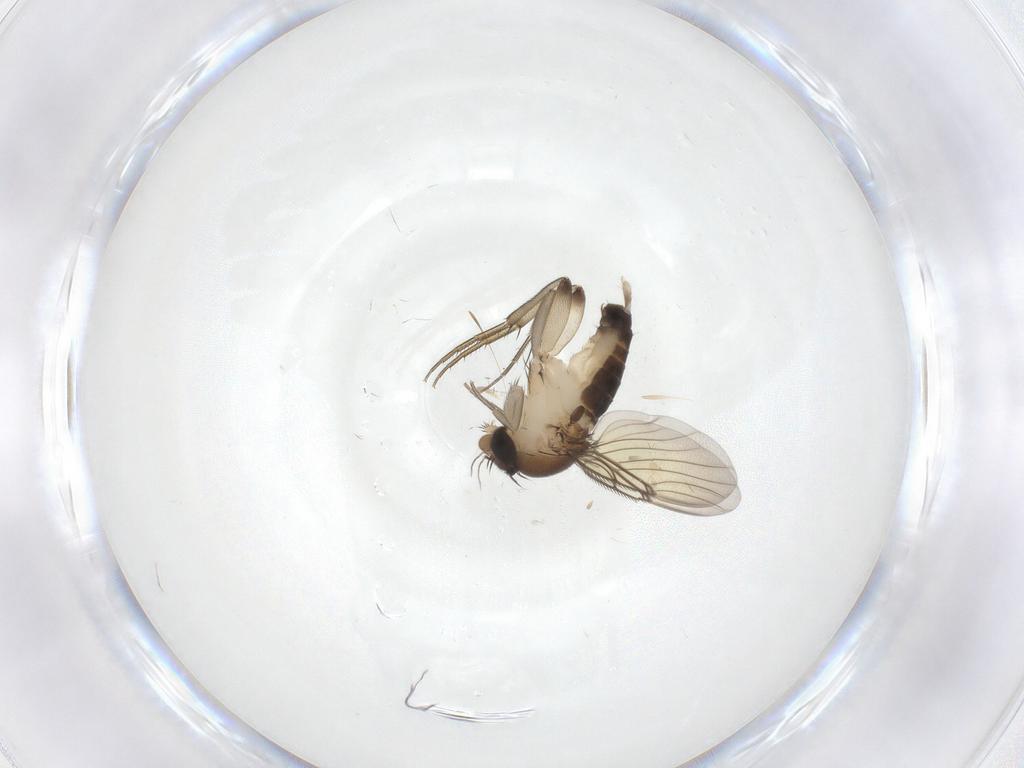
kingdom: Animalia
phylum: Arthropoda
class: Insecta
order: Diptera
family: Phoridae
